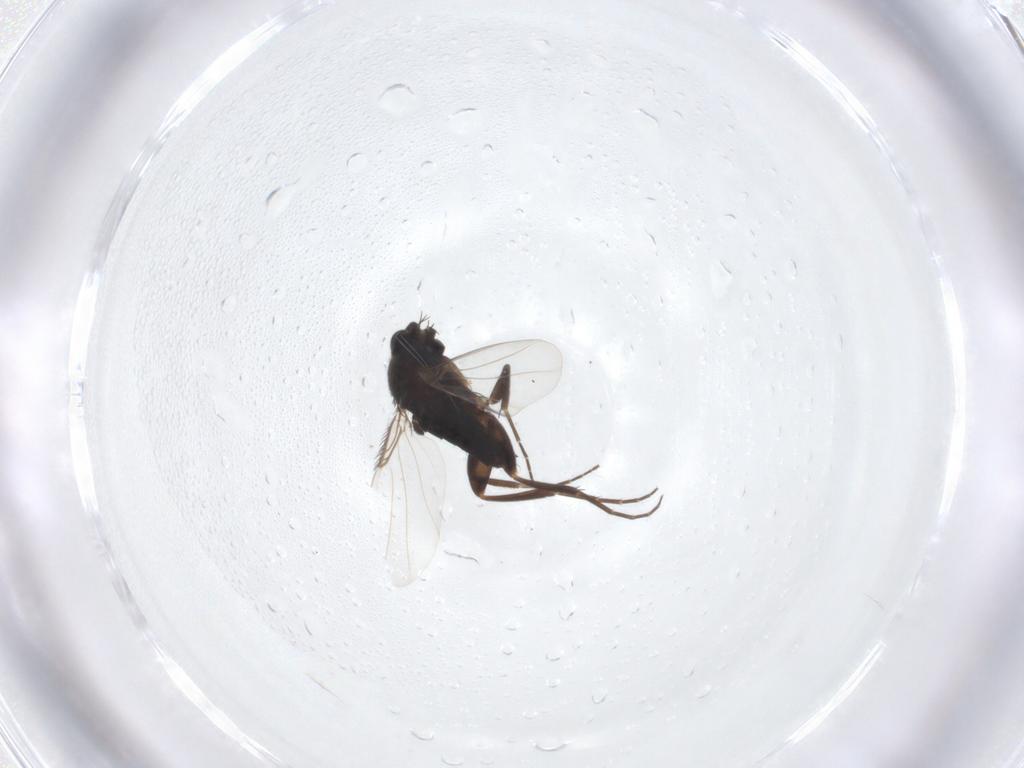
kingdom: Animalia
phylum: Arthropoda
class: Insecta
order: Diptera
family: Phoridae
